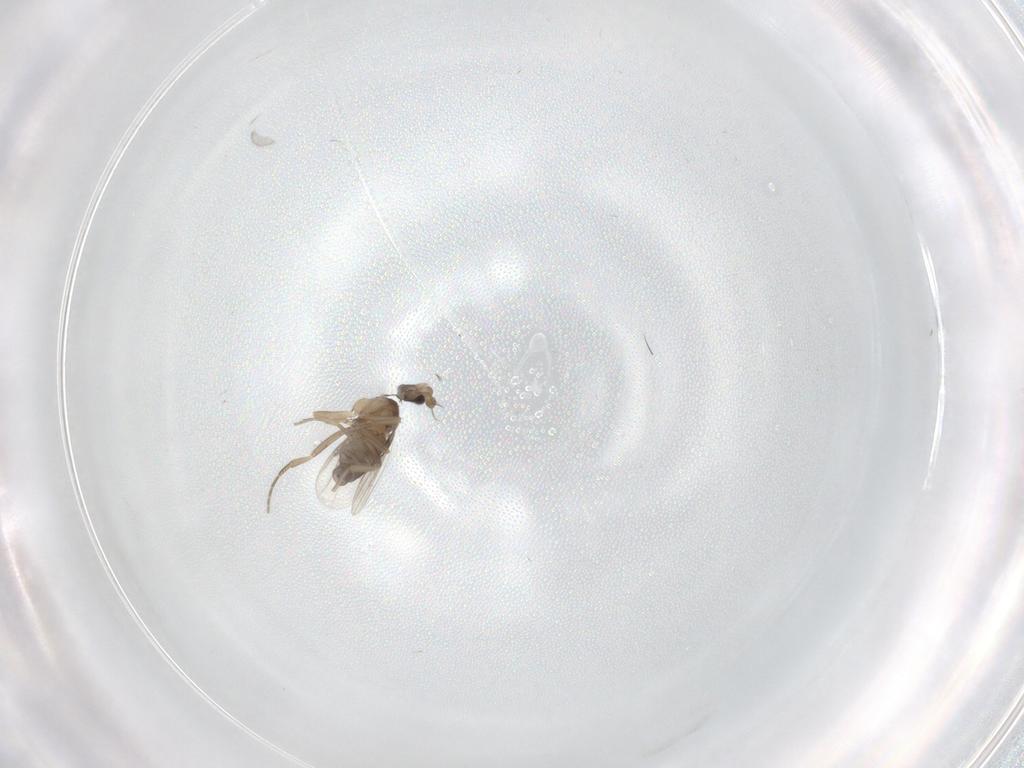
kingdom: Animalia
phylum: Arthropoda
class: Insecta
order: Diptera
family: Phoridae
